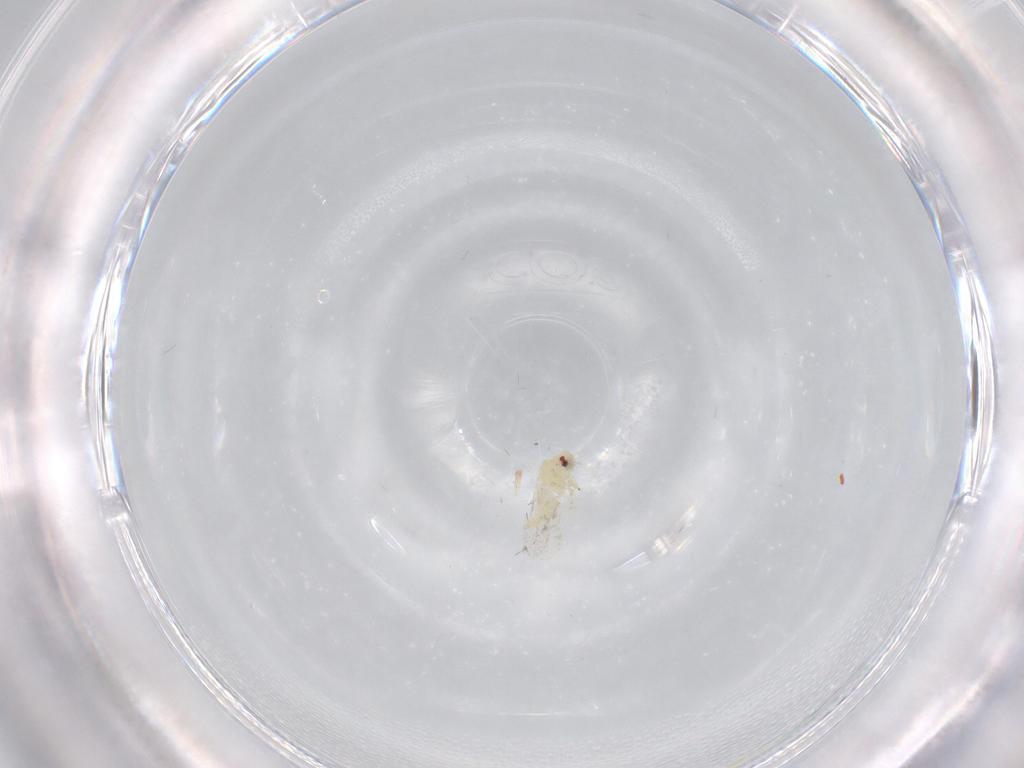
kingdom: Animalia
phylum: Arthropoda
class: Insecta
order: Hemiptera
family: Aleyrodidae
